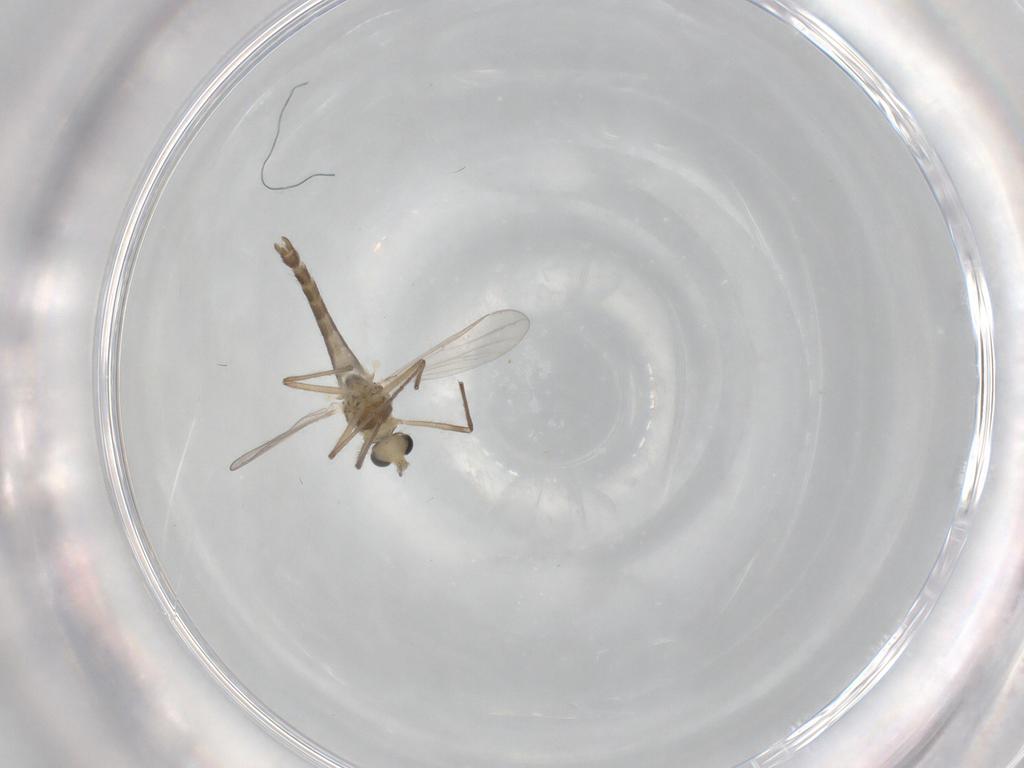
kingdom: Animalia
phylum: Arthropoda
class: Insecta
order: Diptera
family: Chironomidae
